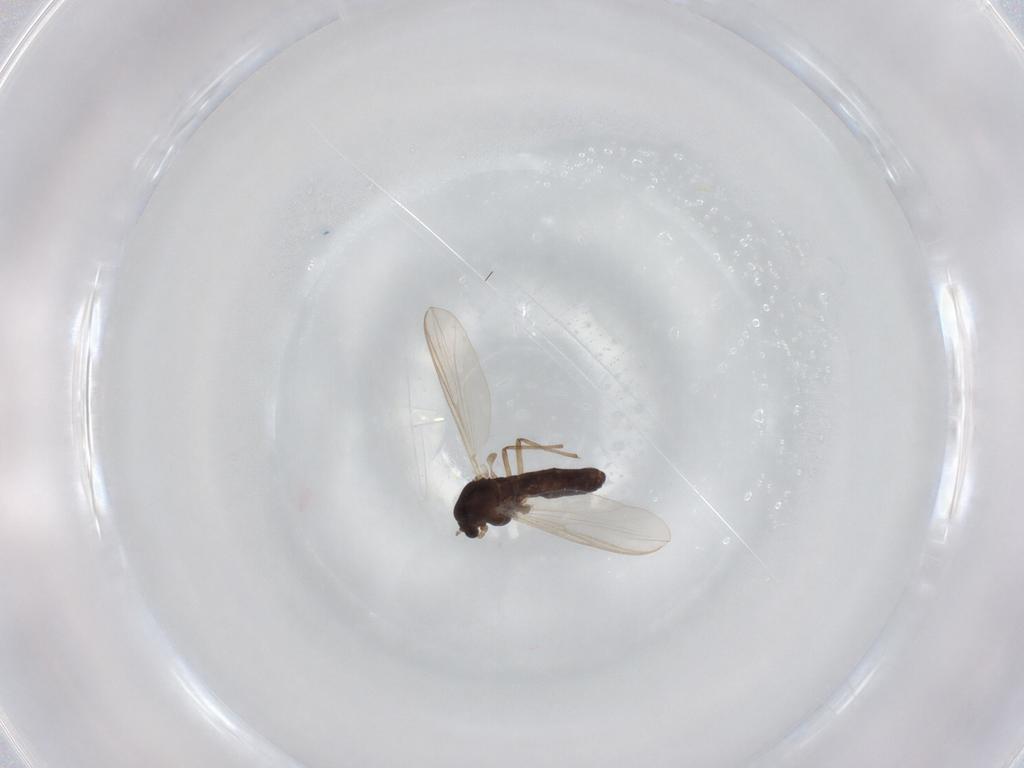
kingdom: Animalia
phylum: Arthropoda
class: Insecta
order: Diptera
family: Chironomidae
